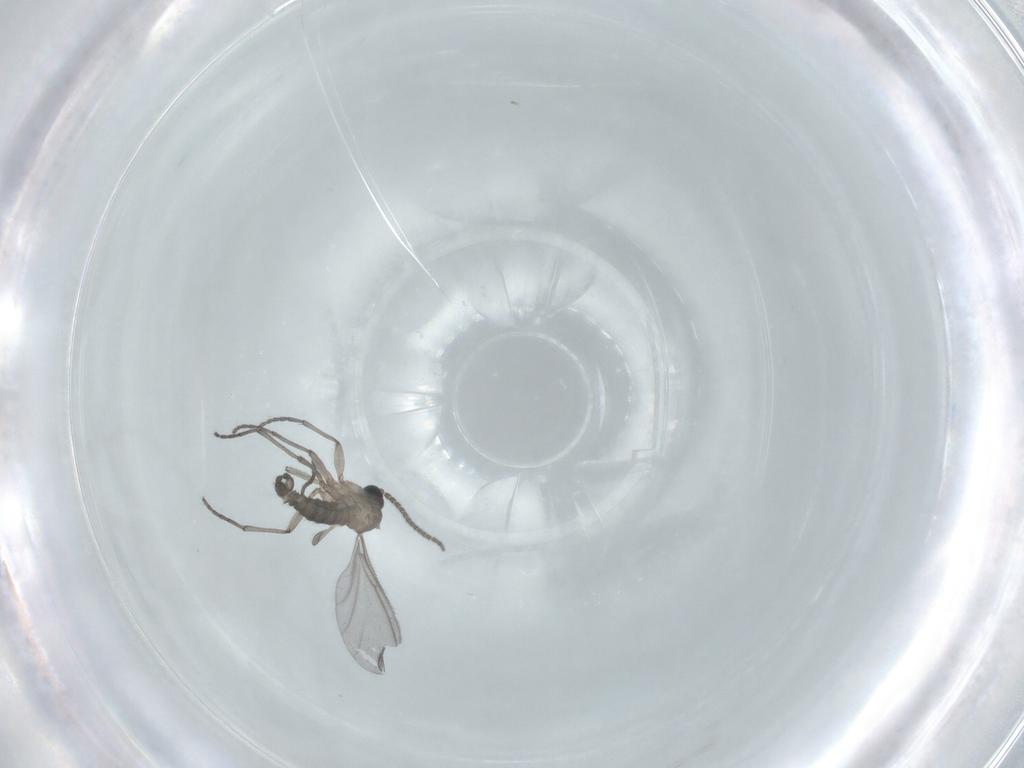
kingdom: Animalia
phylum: Arthropoda
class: Insecta
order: Diptera
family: Sciaridae
